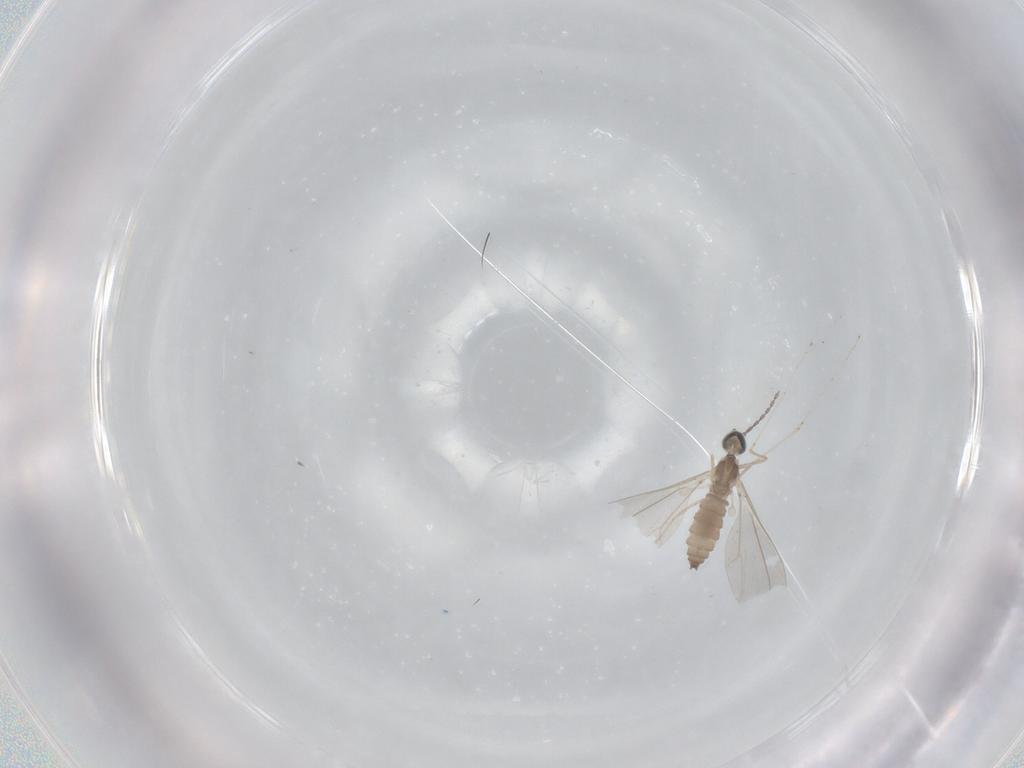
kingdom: Animalia
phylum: Arthropoda
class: Insecta
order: Diptera
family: Cecidomyiidae
